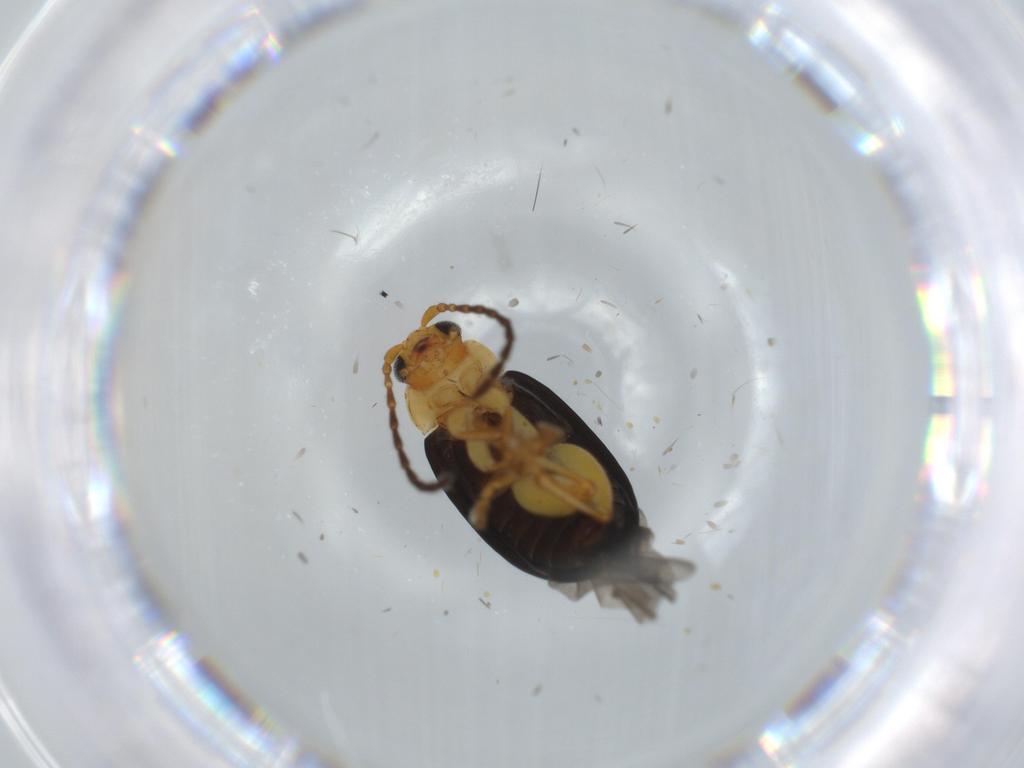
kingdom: Animalia
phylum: Arthropoda
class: Insecta
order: Coleoptera
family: Chrysomelidae
